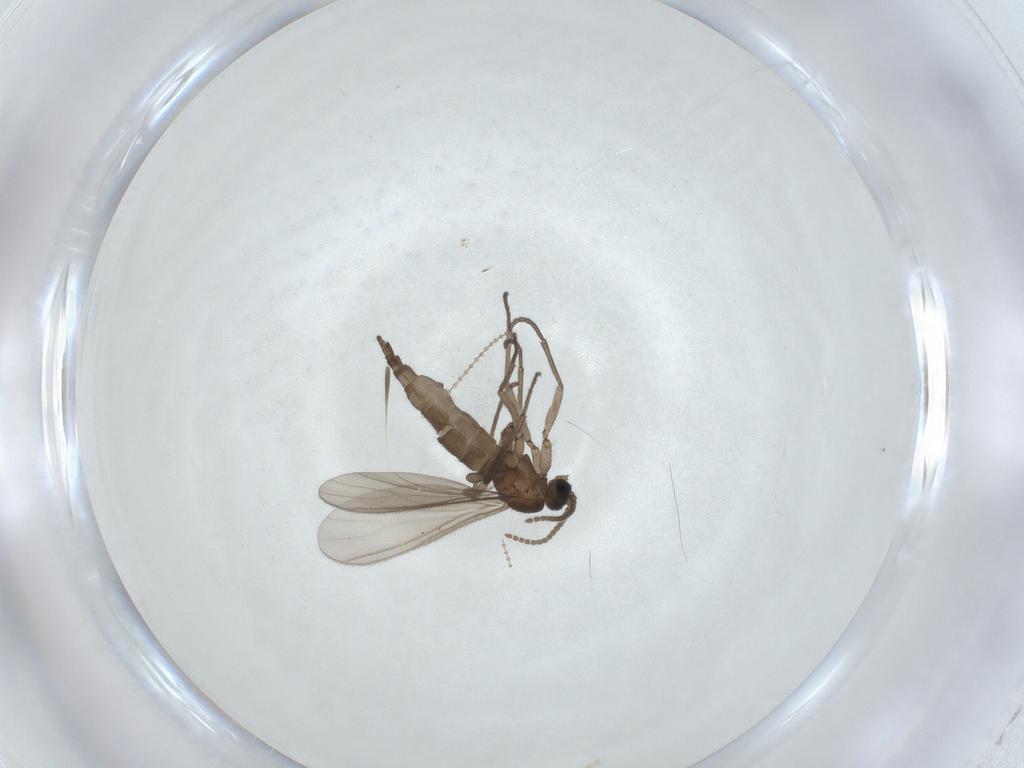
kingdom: Animalia
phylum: Arthropoda
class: Insecta
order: Diptera
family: Sciaridae
